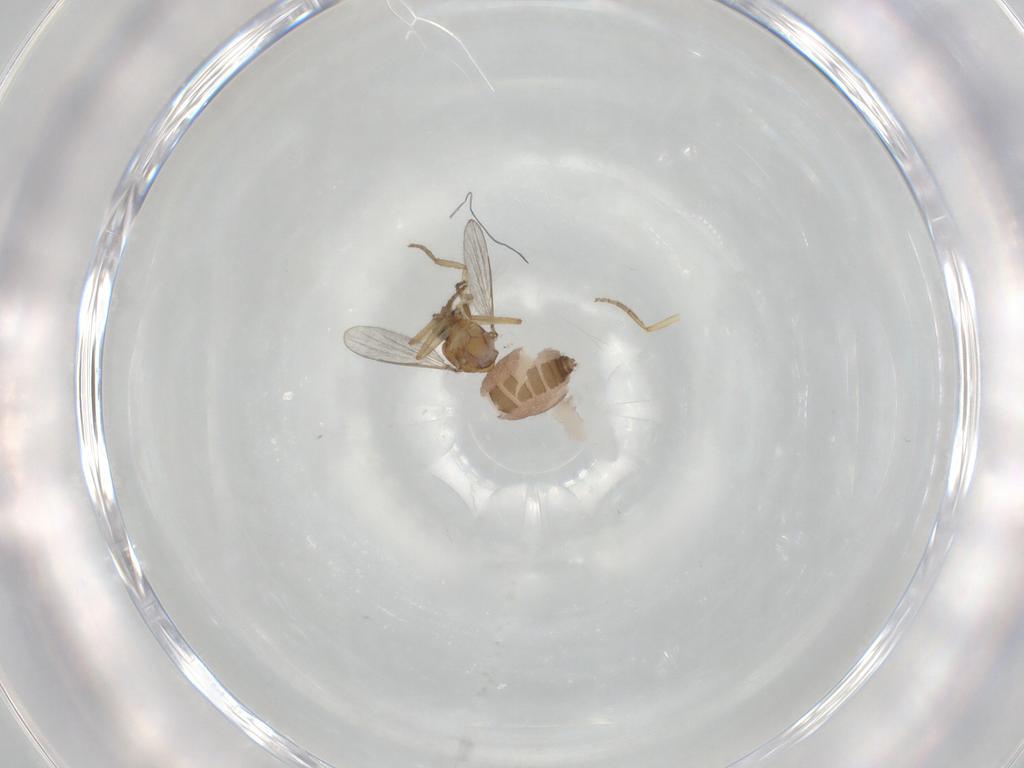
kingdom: Animalia
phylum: Arthropoda
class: Insecta
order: Diptera
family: Ceratopogonidae
